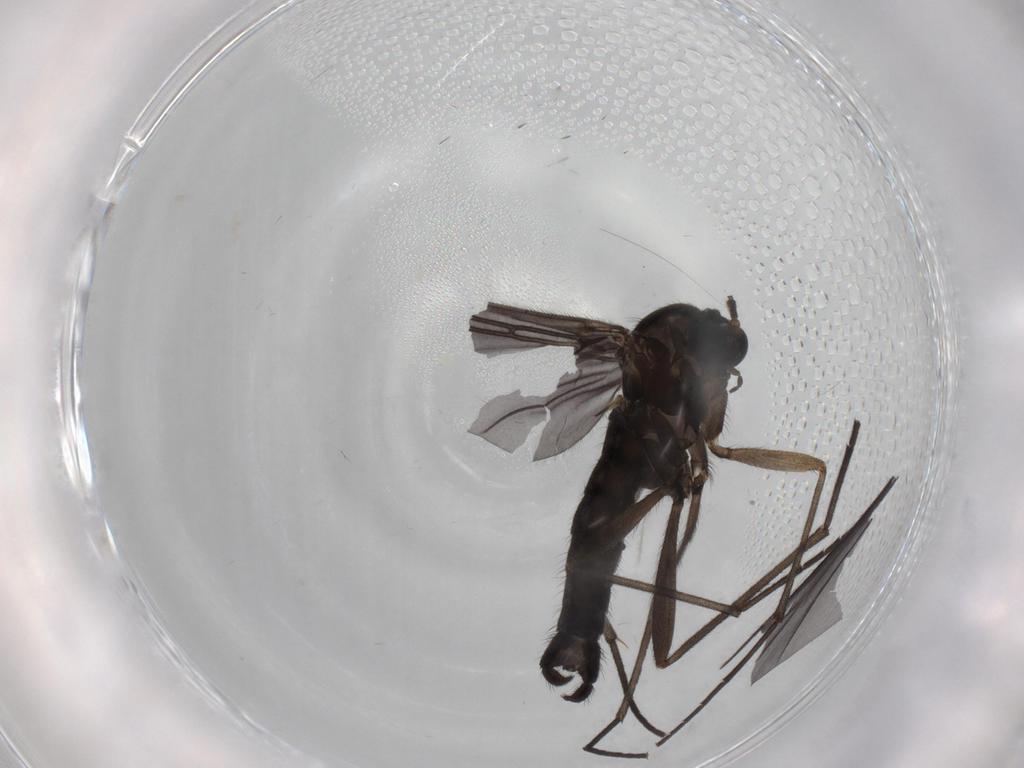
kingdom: Animalia
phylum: Arthropoda
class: Insecta
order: Diptera
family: Sciaridae
